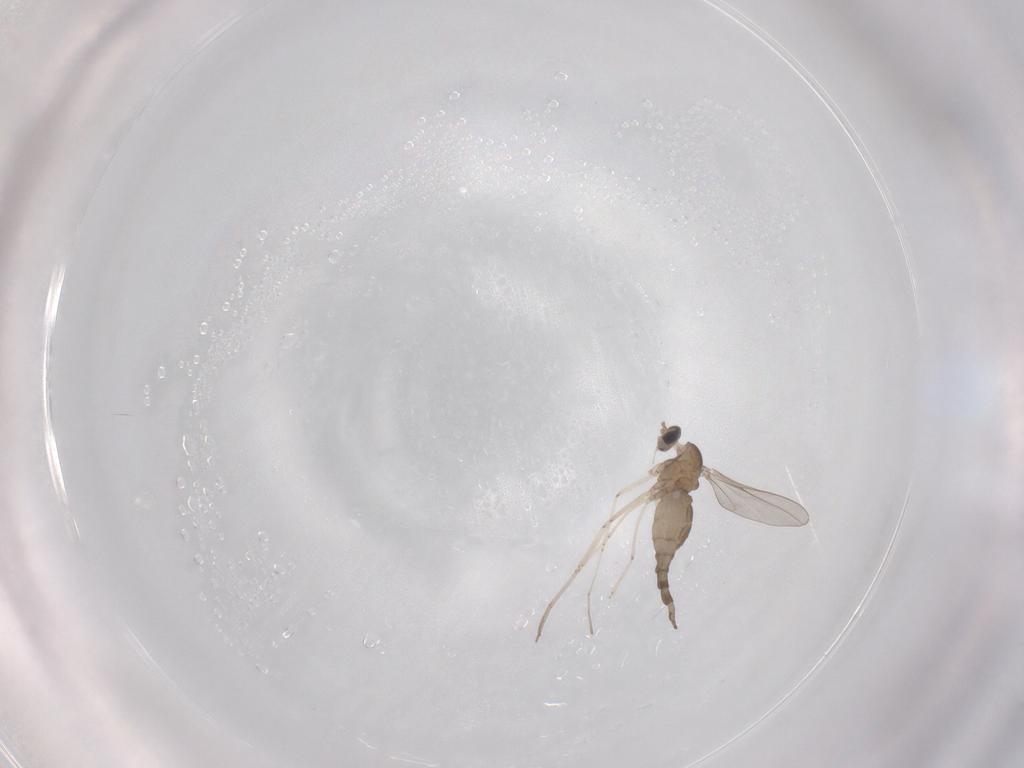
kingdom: Animalia
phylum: Arthropoda
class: Insecta
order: Diptera
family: Cecidomyiidae
